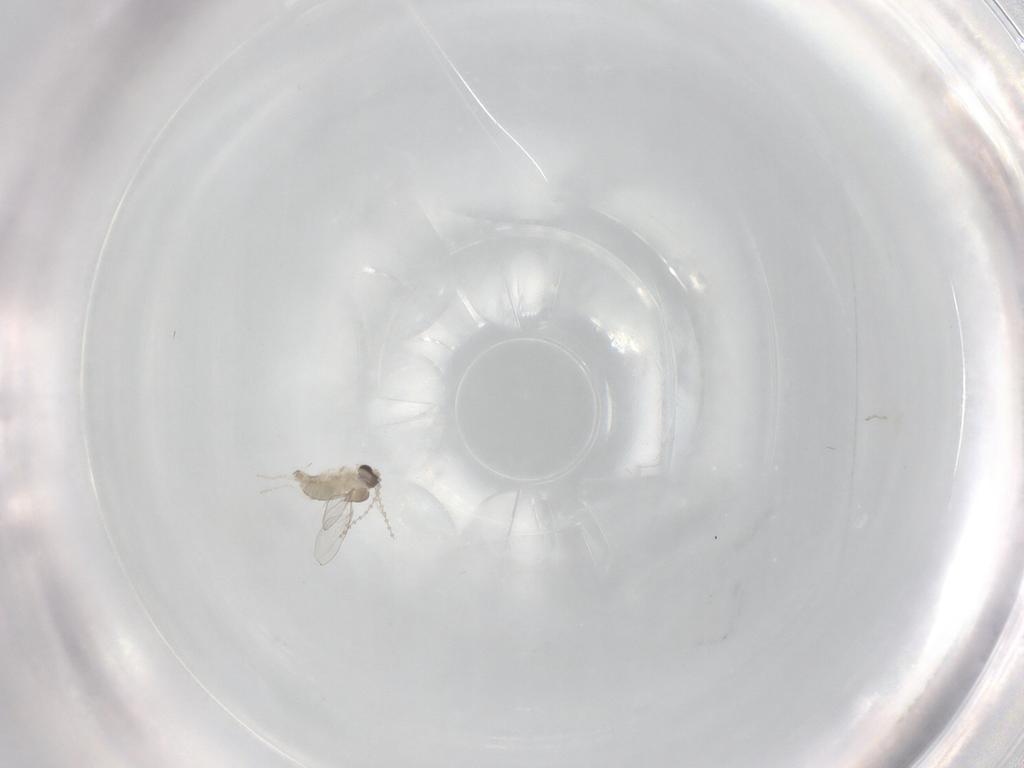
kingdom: Animalia
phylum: Arthropoda
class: Insecta
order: Diptera
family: Cecidomyiidae
